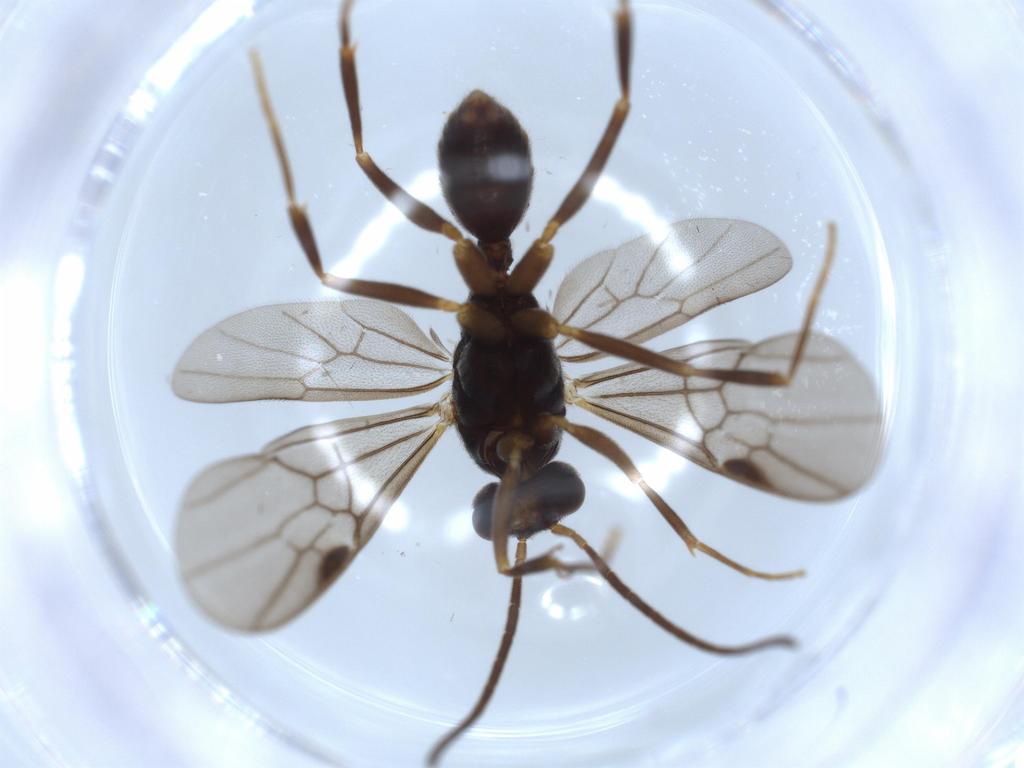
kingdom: Animalia
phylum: Arthropoda
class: Insecta
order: Hymenoptera
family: Formicidae
